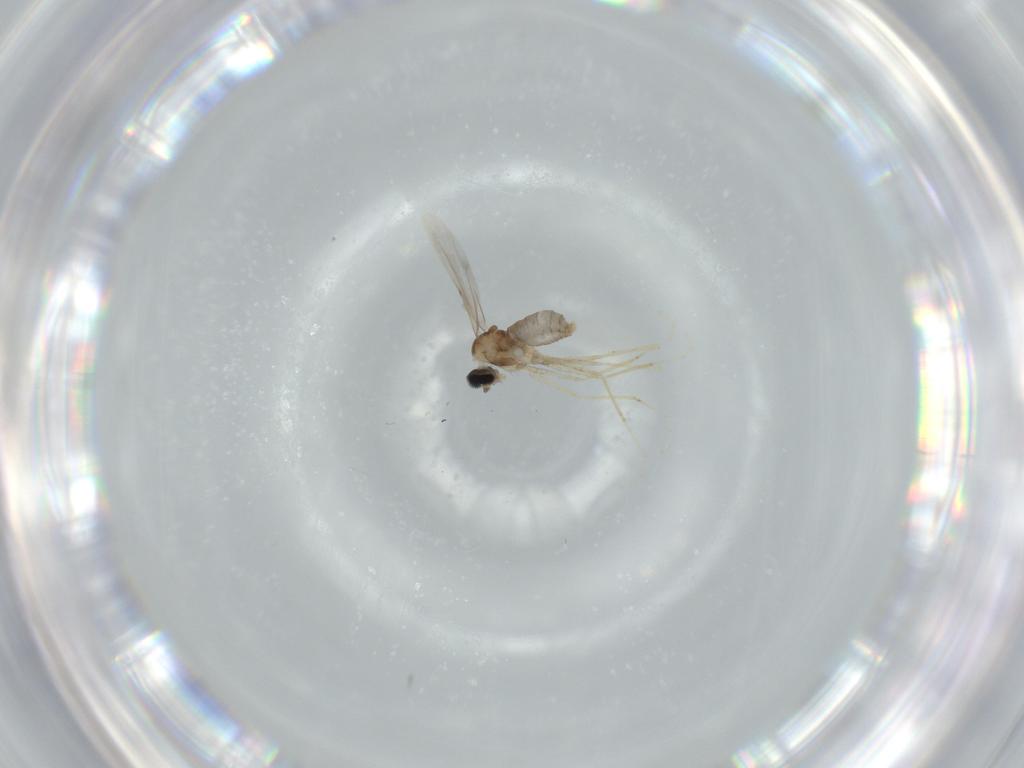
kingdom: Animalia
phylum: Arthropoda
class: Insecta
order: Diptera
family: Cecidomyiidae
